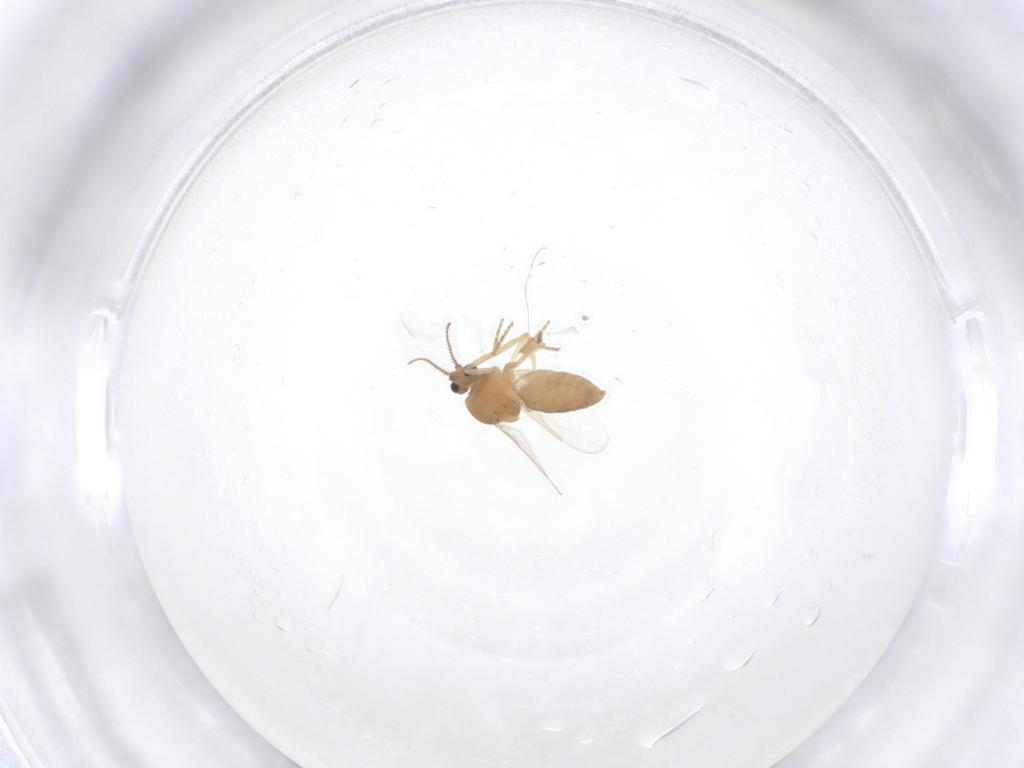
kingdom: Animalia
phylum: Arthropoda
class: Insecta
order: Diptera
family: Ceratopogonidae
